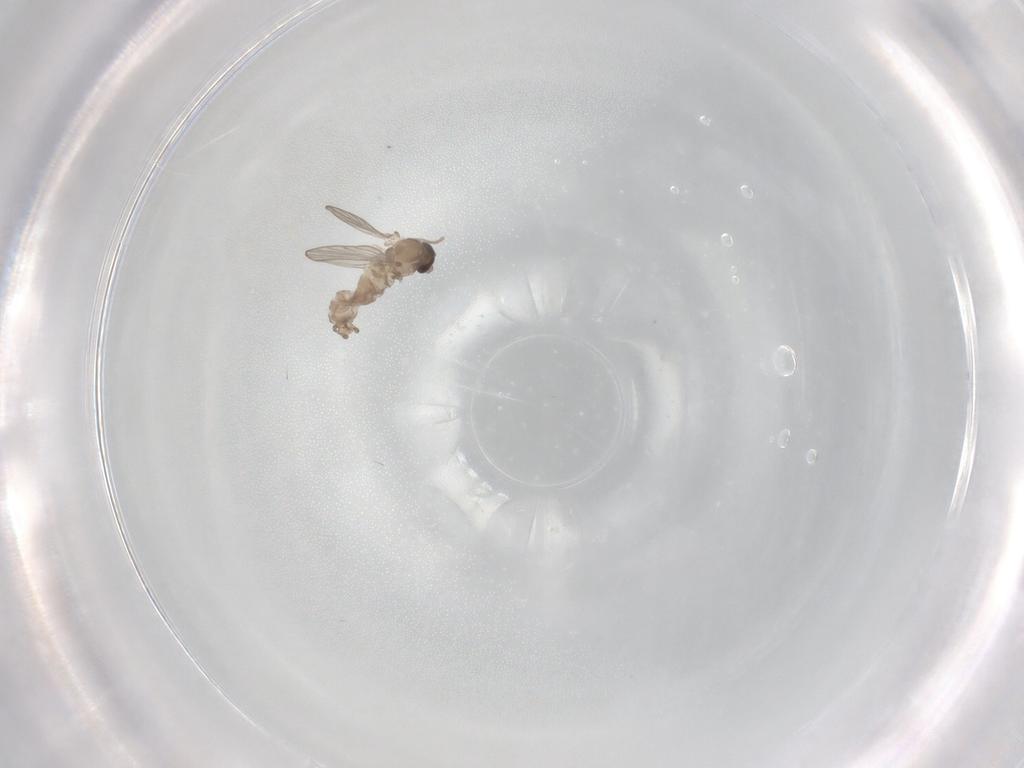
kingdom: Animalia
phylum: Arthropoda
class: Insecta
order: Diptera
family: Psychodidae
